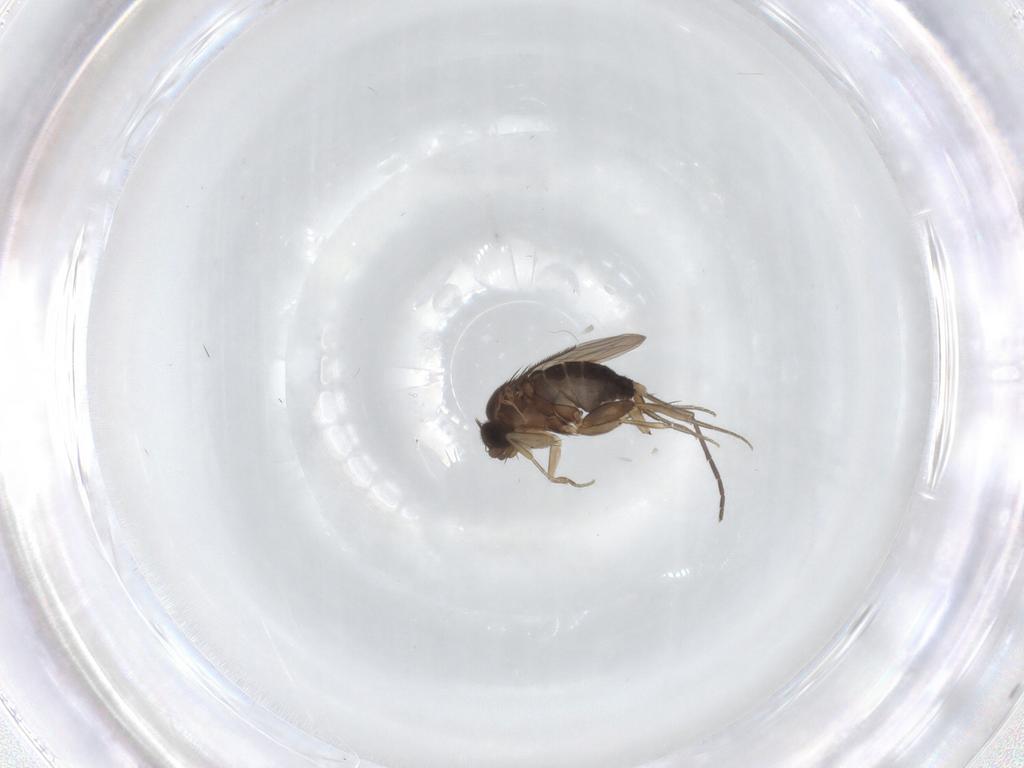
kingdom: Animalia
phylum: Arthropoda
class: Insecta
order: Diptera
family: Sciaridae
